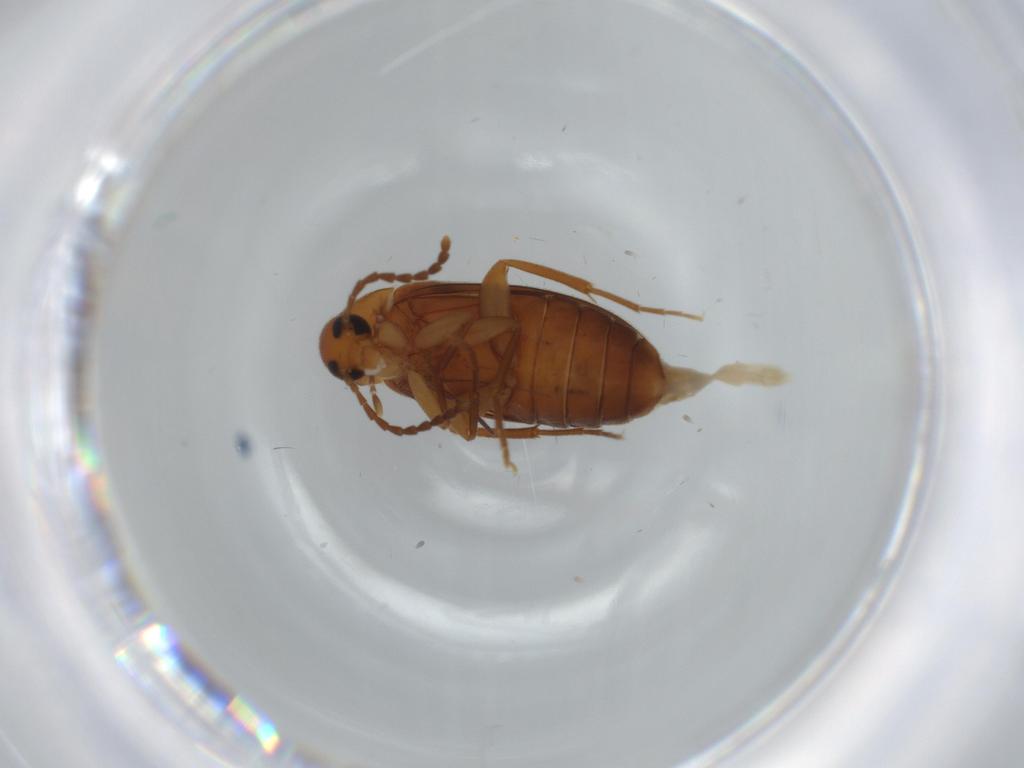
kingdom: Animalia
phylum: Arthropoda
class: Insecta
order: Coleoptera
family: Scraptiidae
